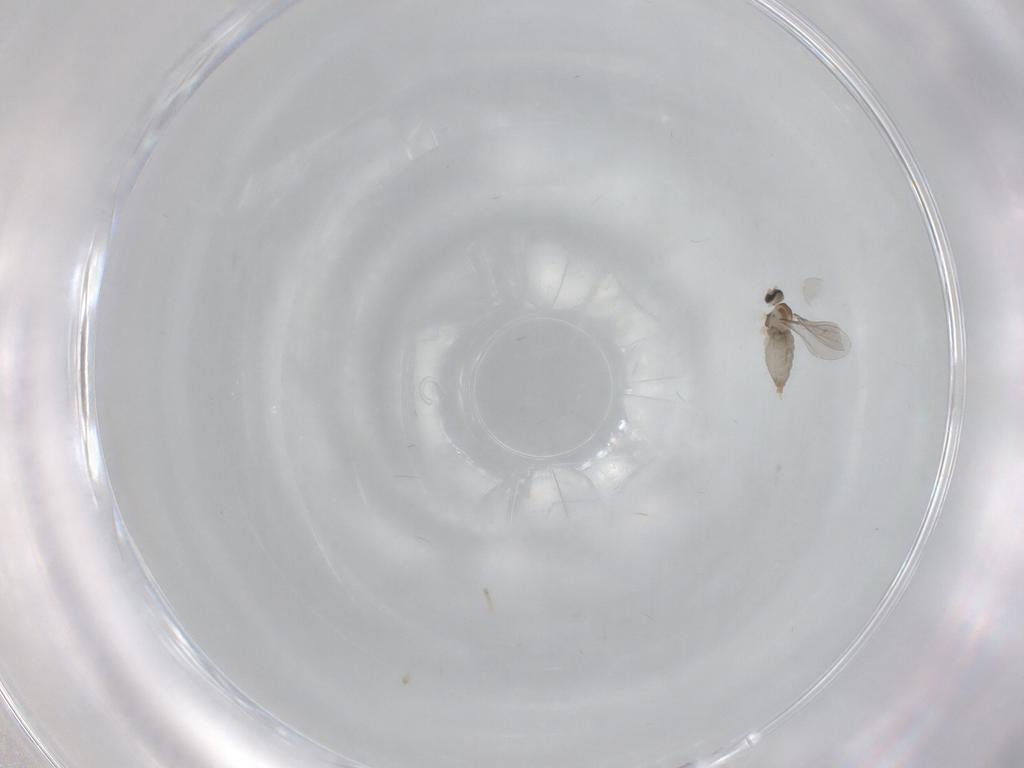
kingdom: Animalia
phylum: Arthropoda
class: Insecta
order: Diptera
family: Cecidomyiidae
